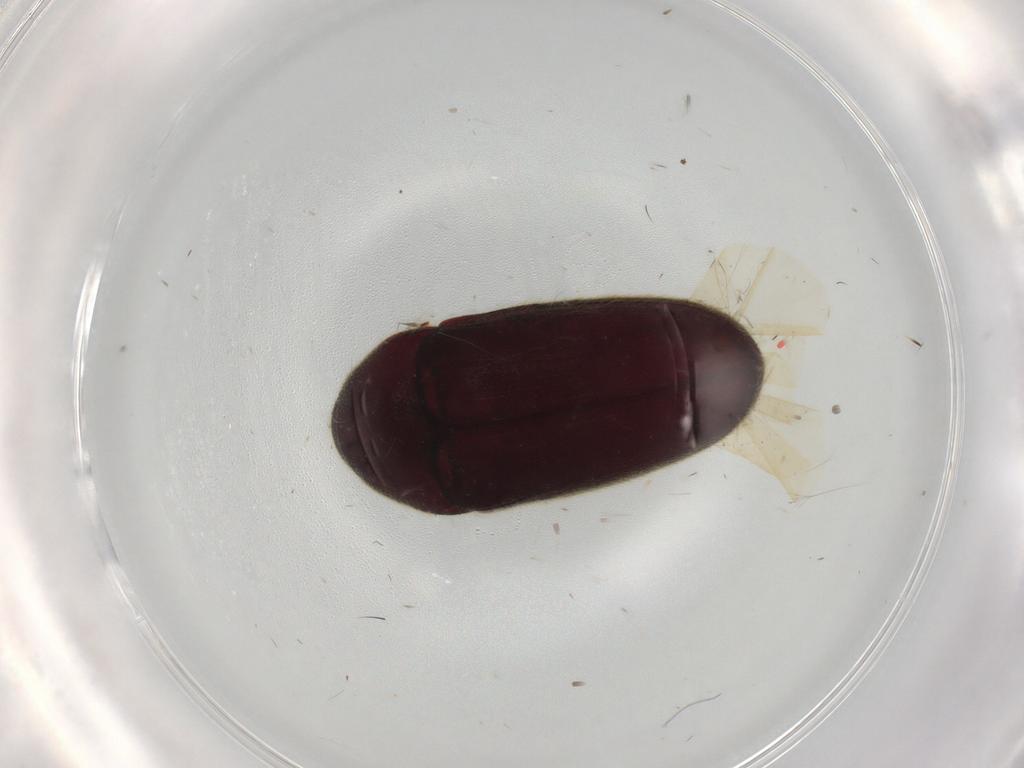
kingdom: Animalia
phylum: Arthropoda
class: Insecta
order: Coleoptera
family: Throscidae
